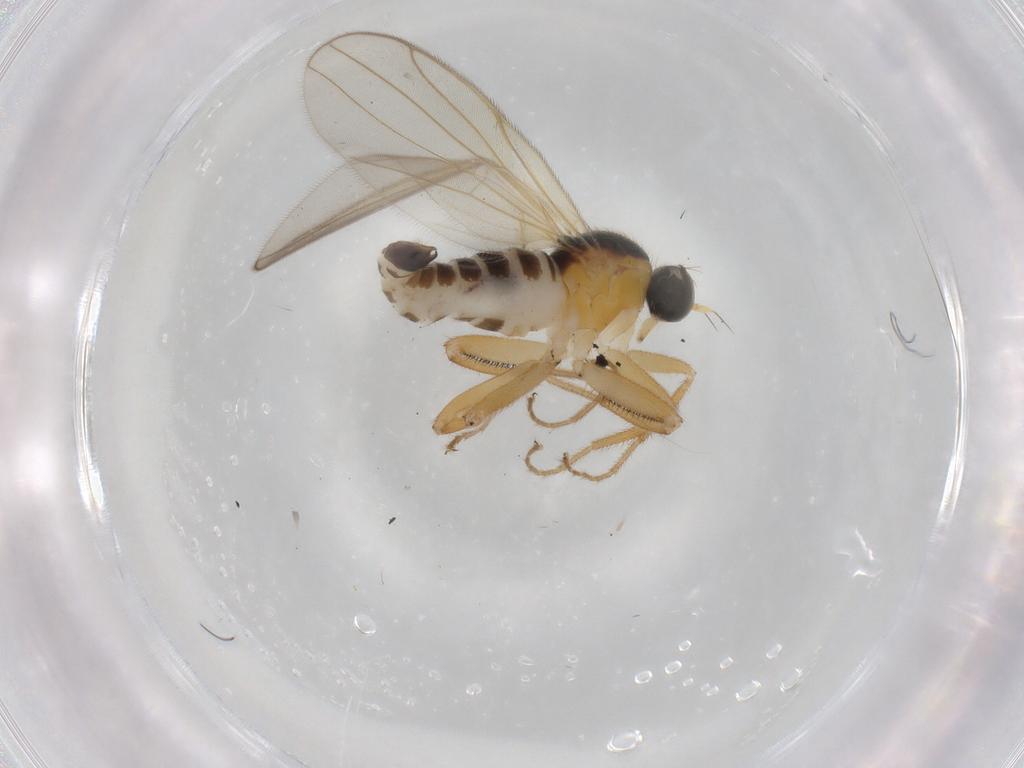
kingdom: Animalia
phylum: Arthropoda
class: Insecta
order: Diptera
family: Hybotidae
